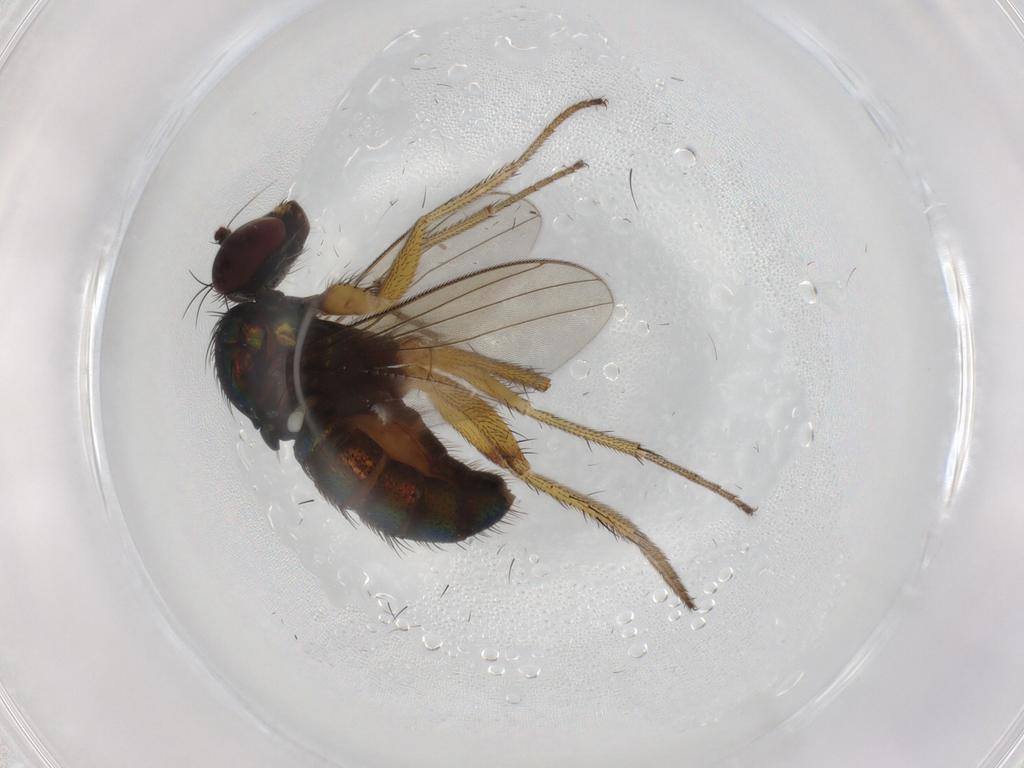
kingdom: Animalia
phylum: Arthropoda
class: Insecta
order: Diptera
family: Dolichopodidae
